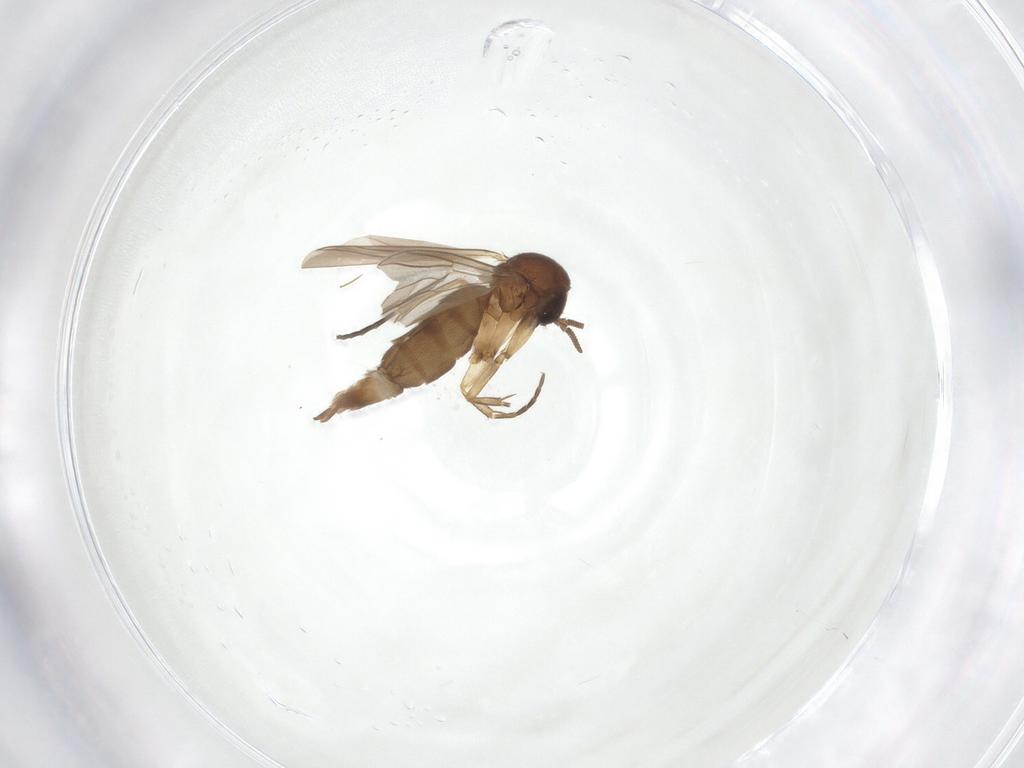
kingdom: Animalia
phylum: Arthropoda
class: Insecta
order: Diptera
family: Mycetophilidae
